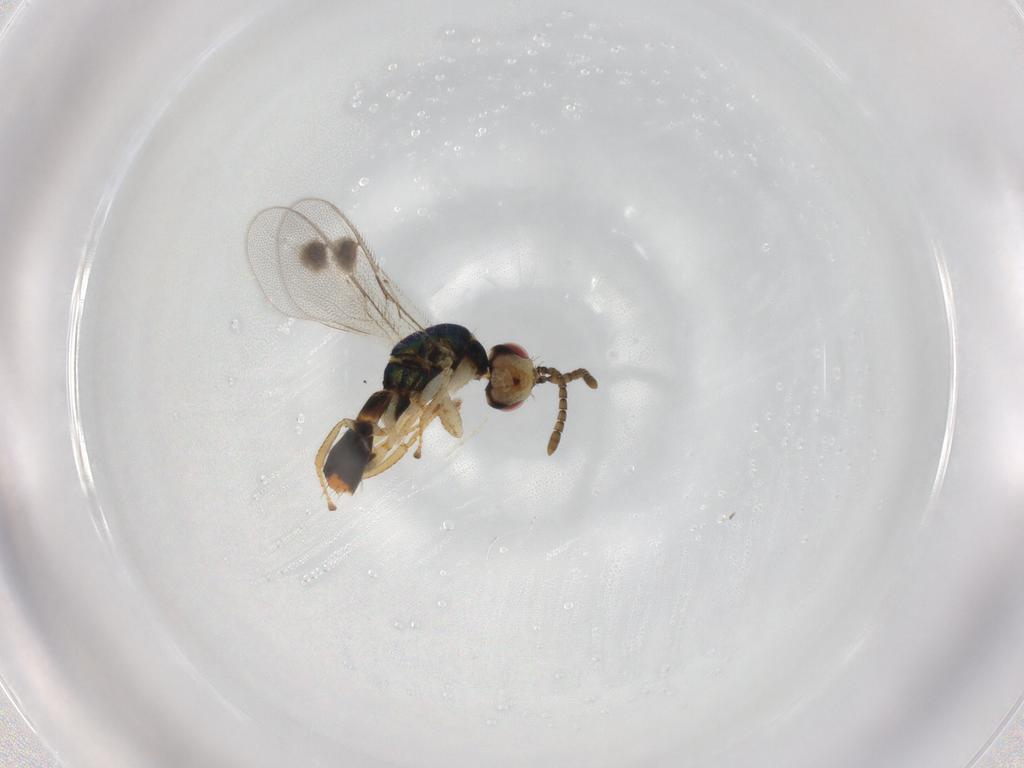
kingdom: Animalia
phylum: Arthropoda
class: Insecta
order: Hymenoptera
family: Megastigmidae
